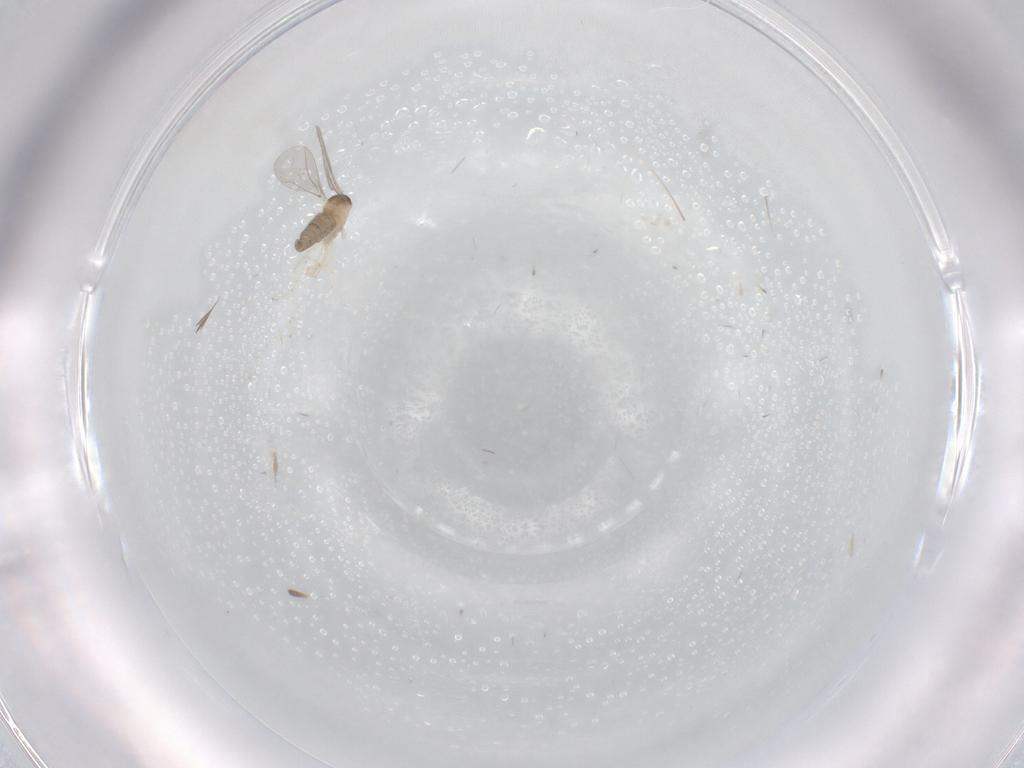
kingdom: Animalia
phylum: Arthropoda
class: Insecta
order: Diptera
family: Cecidomyiidae
